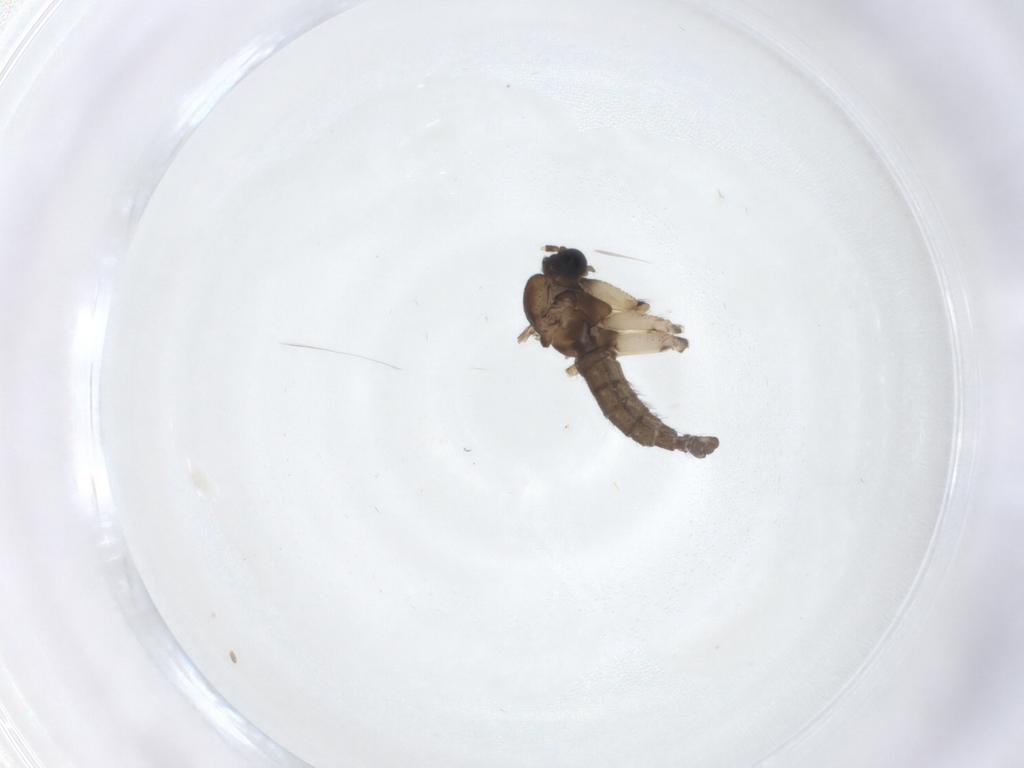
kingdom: Animalia
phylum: Arthropoda
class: Insecta
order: Diptera
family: Sciaridae
